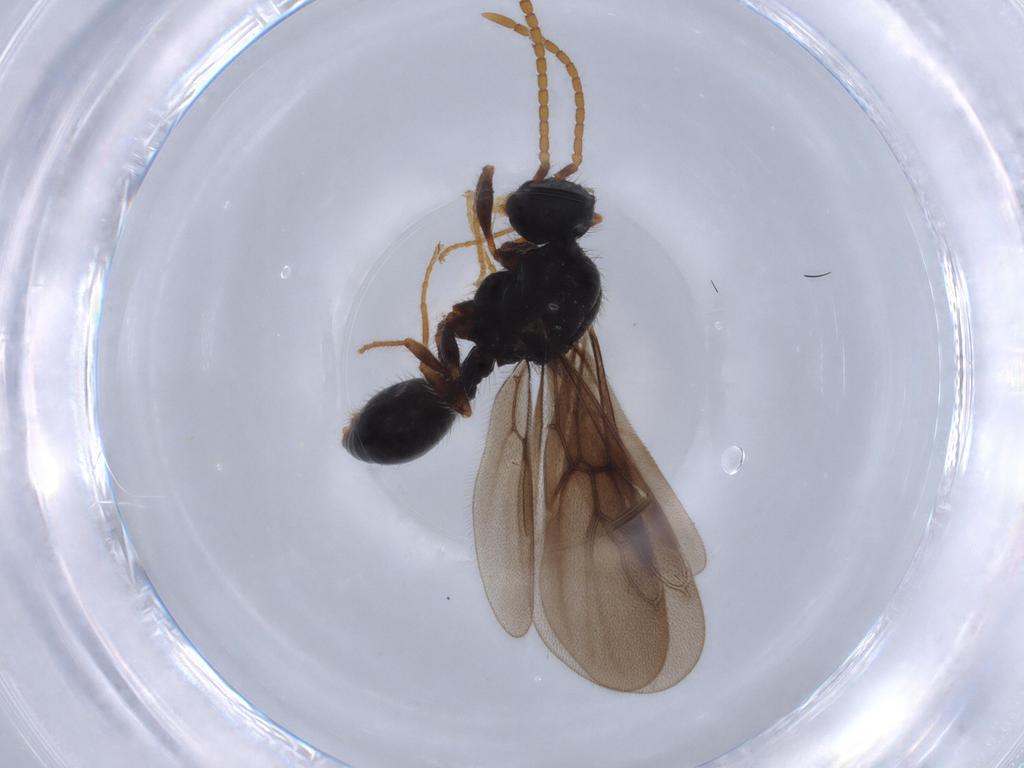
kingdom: Animalia
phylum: Arthropoda
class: Insecta
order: Hymenoptera
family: Formicidae
